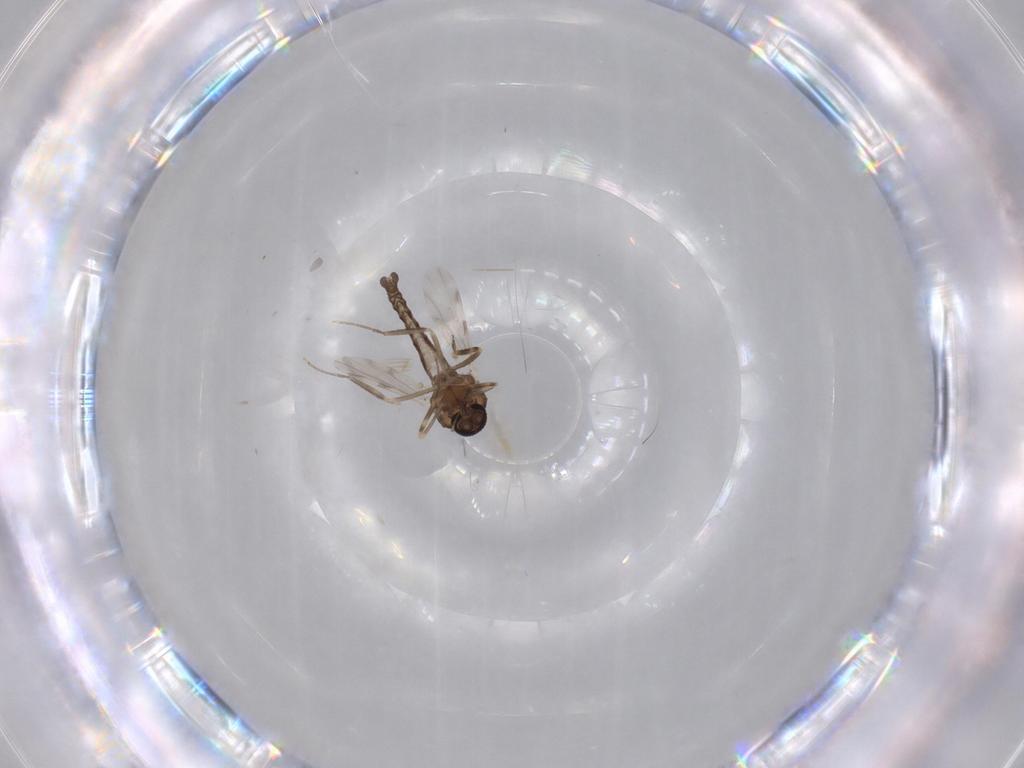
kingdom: Animalia
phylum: Arthropoda
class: Insecta
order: Diptera
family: Ceratopogonidae
